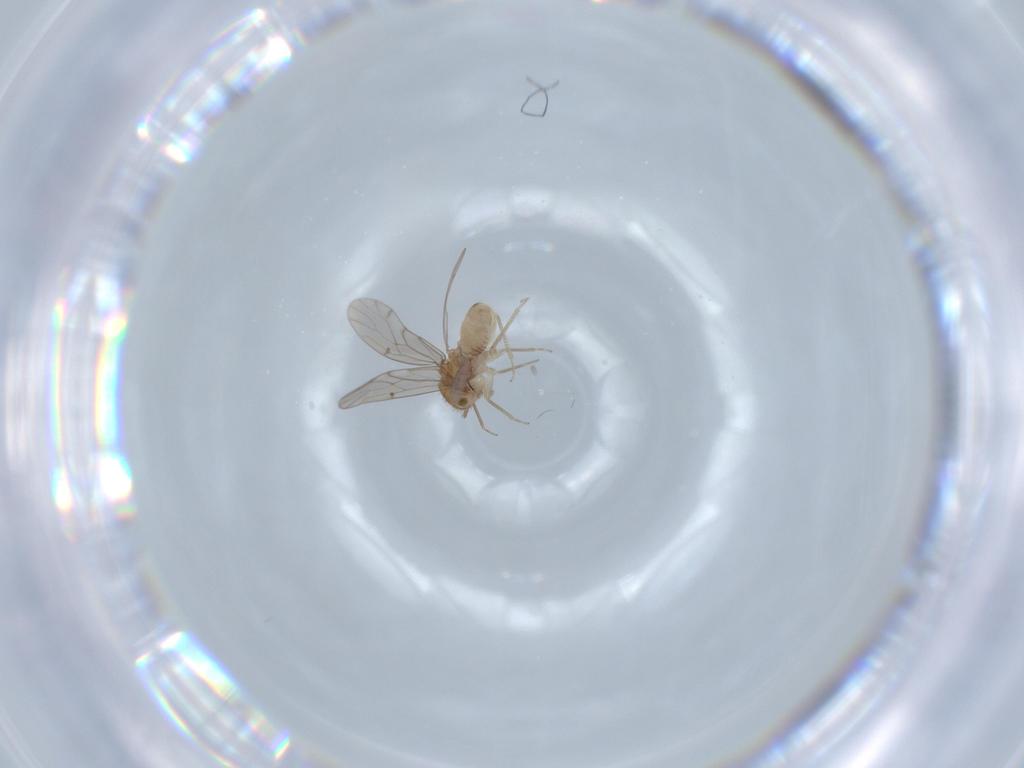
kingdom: Animalia
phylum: Arthropoda
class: Insecta
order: Psocodea
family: Ectopsocidae
